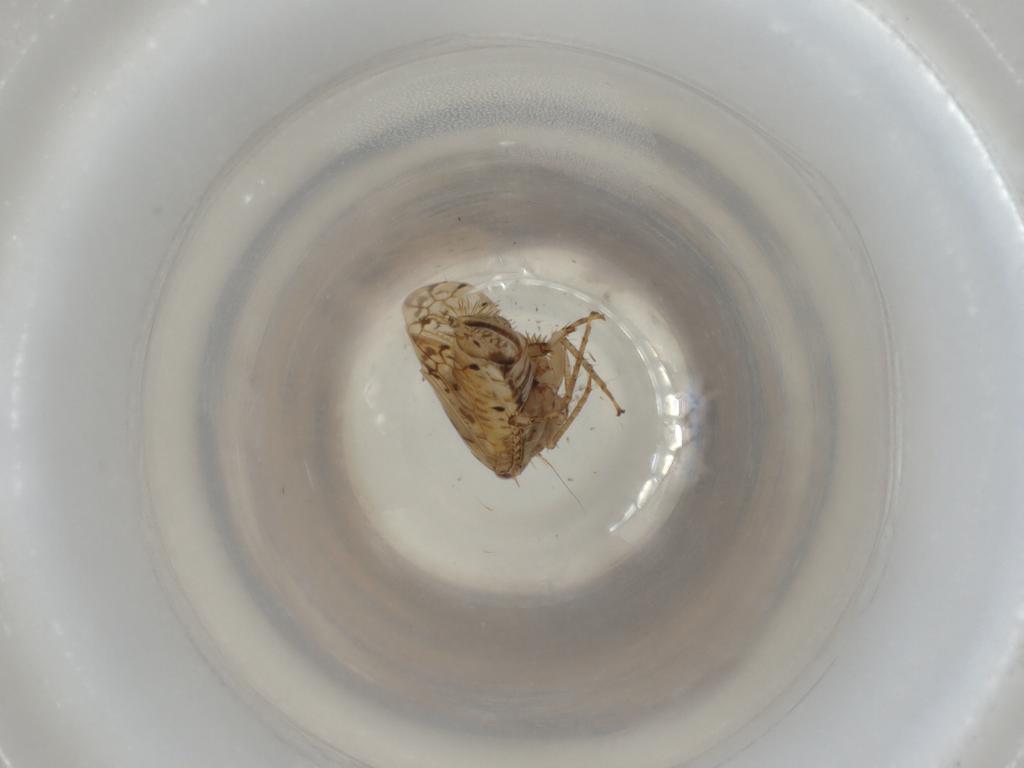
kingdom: Animalia
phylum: Arthropoda
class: Insecta
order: Hemiptera
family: Cicadellidae
